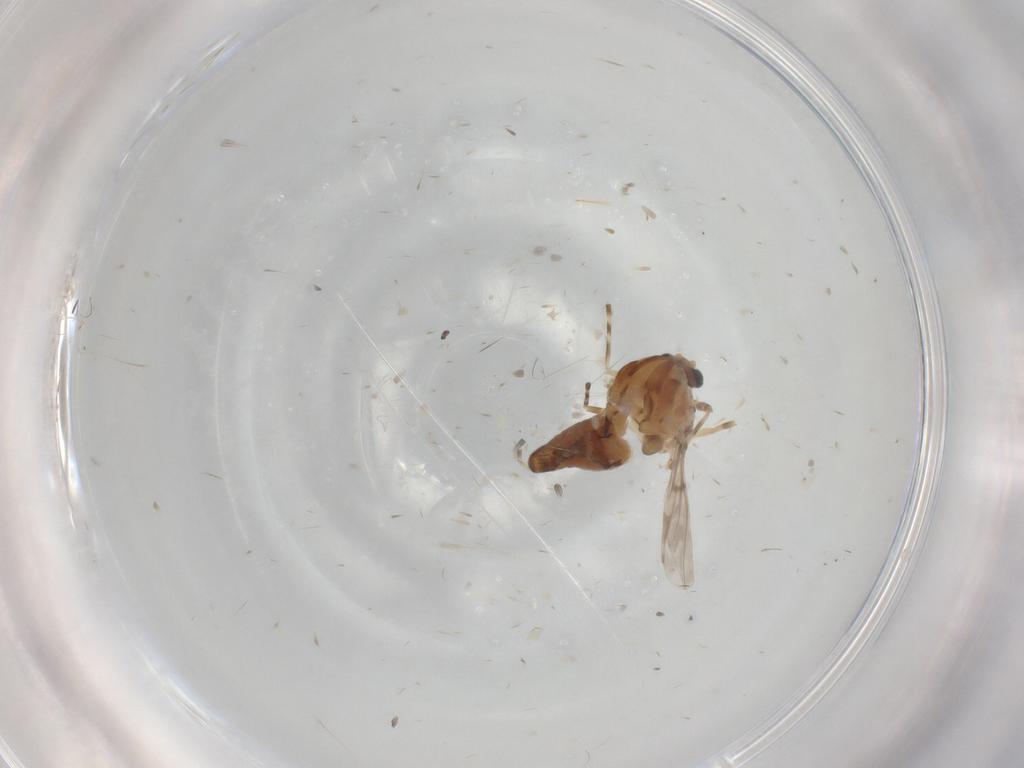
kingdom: Animalia
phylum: Arthropoda
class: Insecta
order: Diptera
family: Chironomidae
